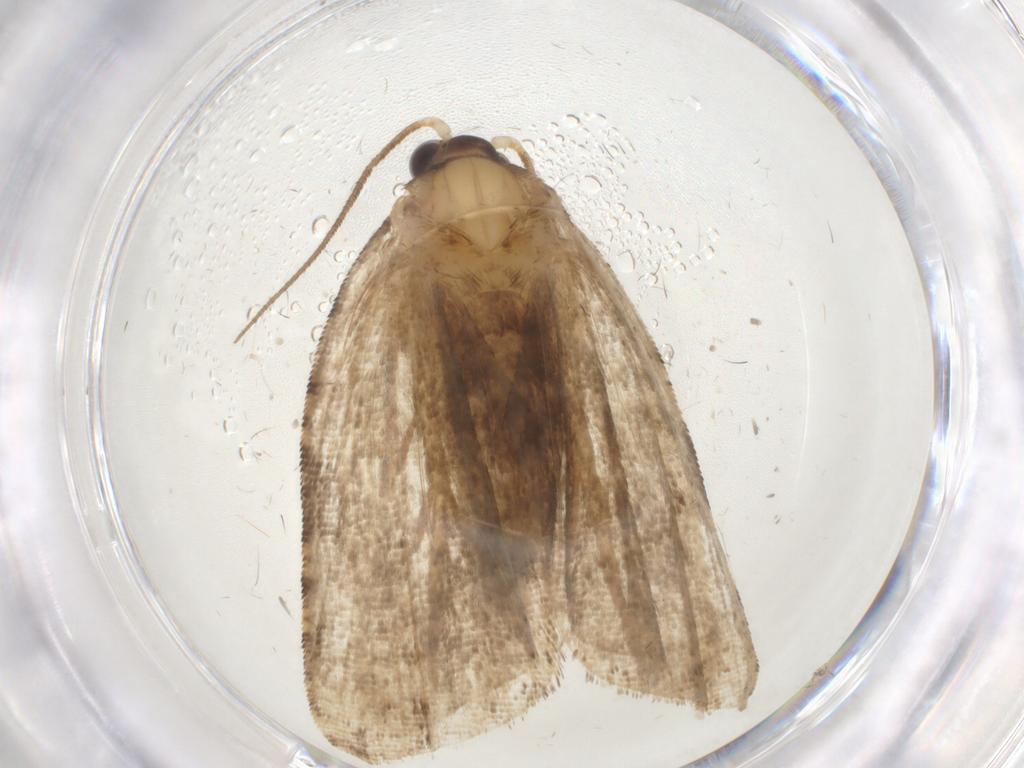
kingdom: Animalia
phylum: Arthropoda
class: Insecta
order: Lepidoptera
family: Tortricidae
